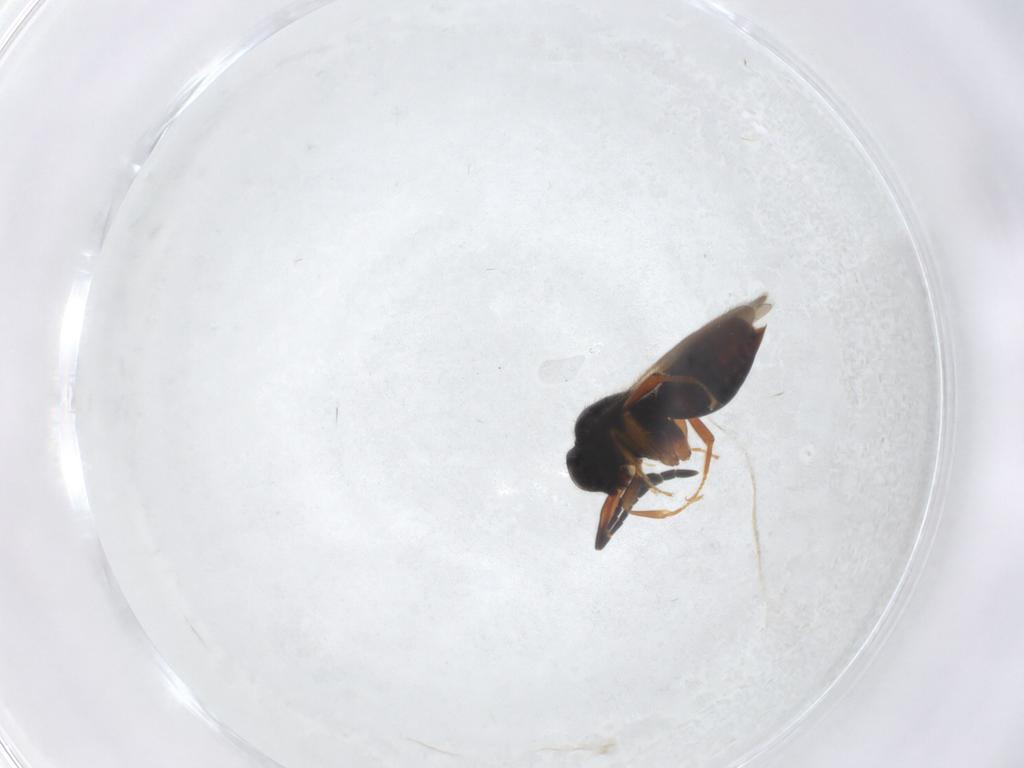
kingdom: Animalia
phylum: Arthropoda
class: Insecta
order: Hymenoptera
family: Ceraphronidae
